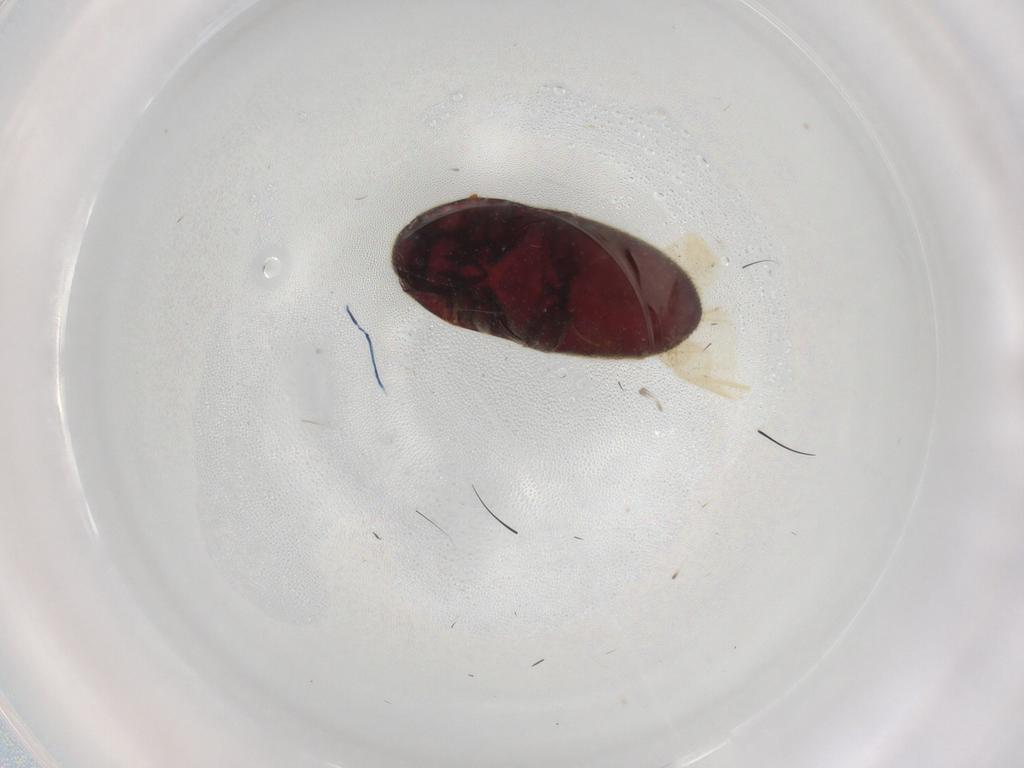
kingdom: Animalia
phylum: Arthropoda
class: Insecta
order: Coleoptera
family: Throscidae
